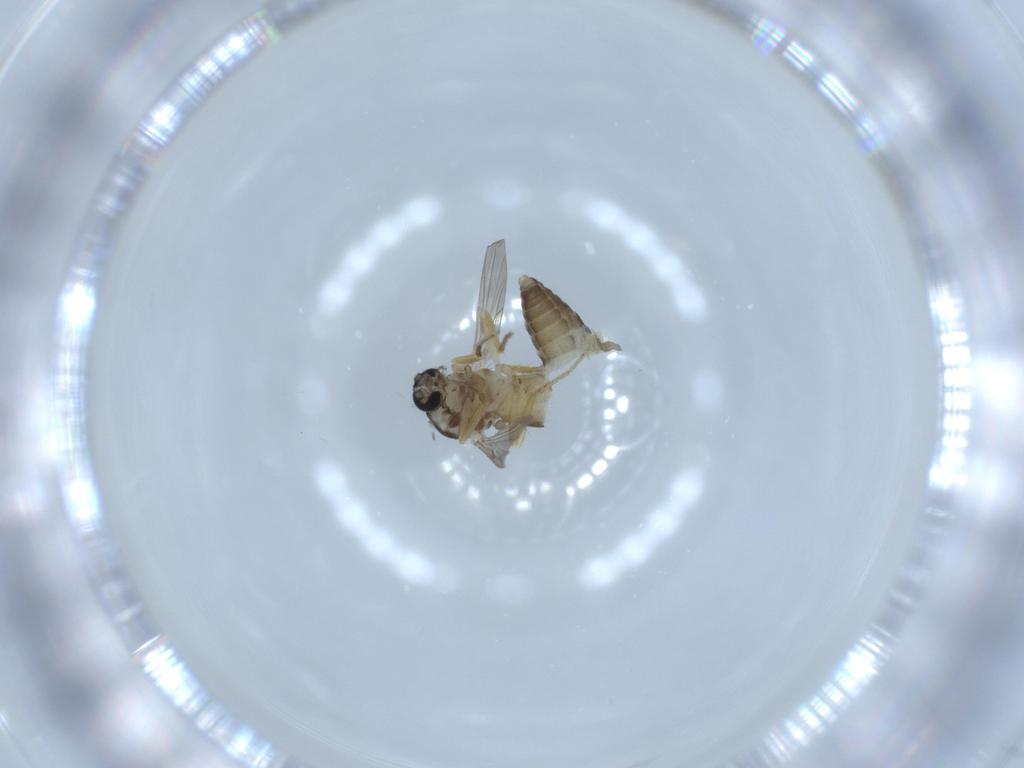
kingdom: Animalia
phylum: Arthropoda
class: Insecta
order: Diptera
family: Ceratopogonidae
